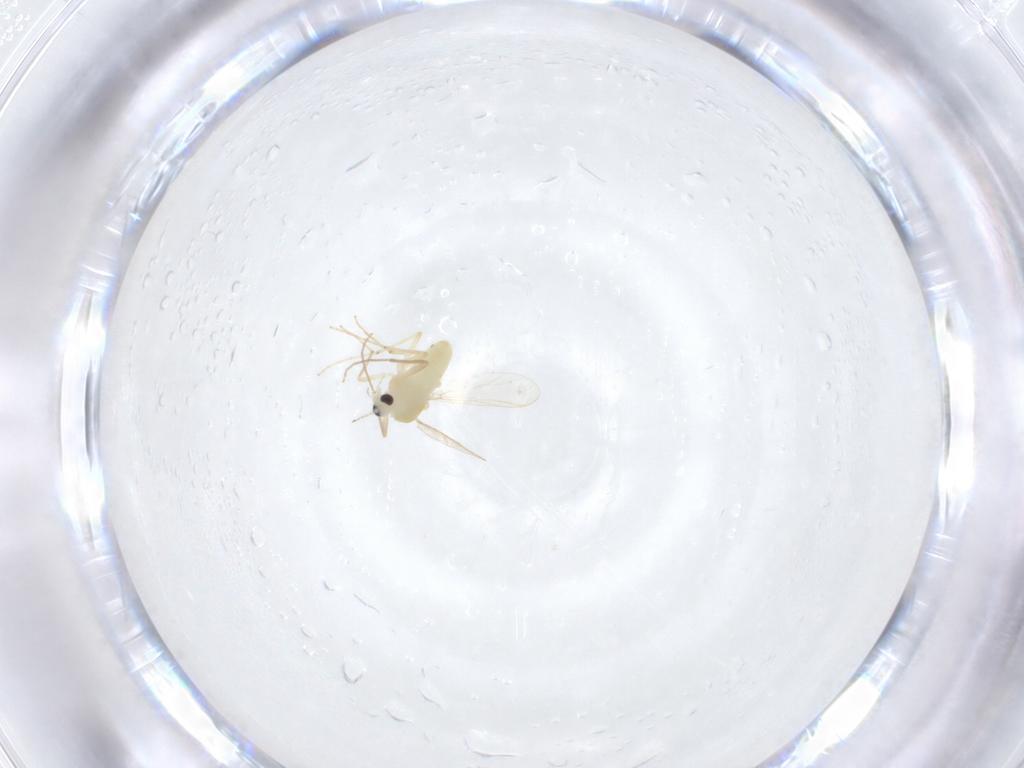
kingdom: Animalia
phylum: Arthropoda
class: Insecta
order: Diptera
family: Chironomidae
